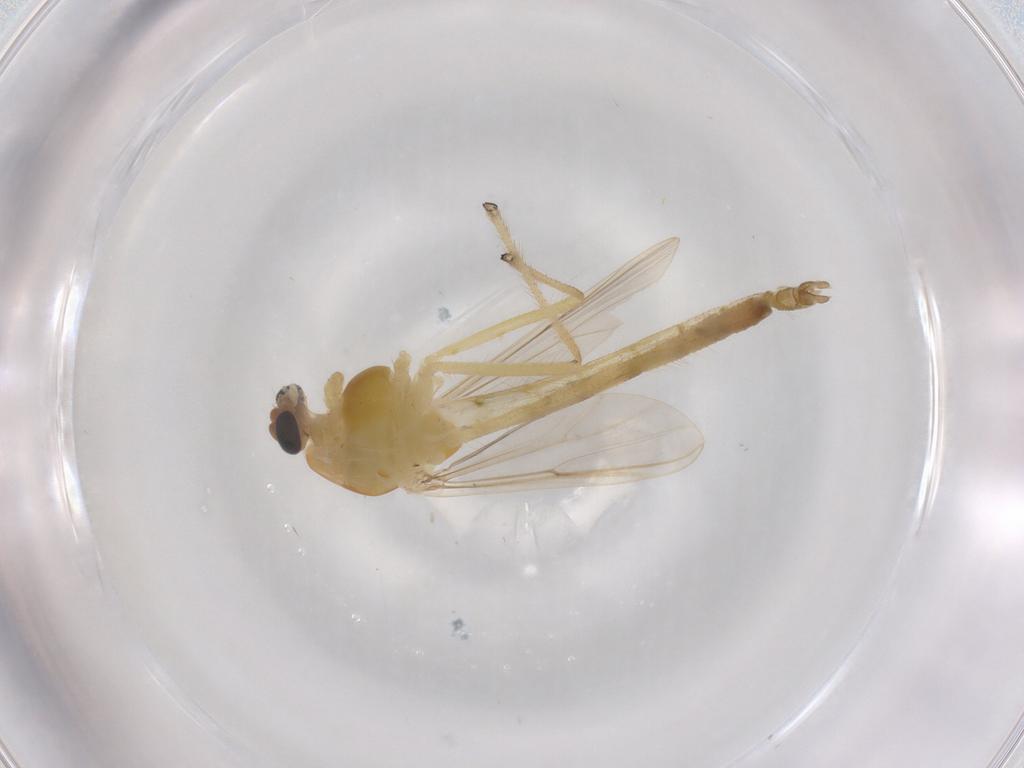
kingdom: Animalia
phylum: Arthropoda
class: Insecta
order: Diptera
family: Chironomidae
